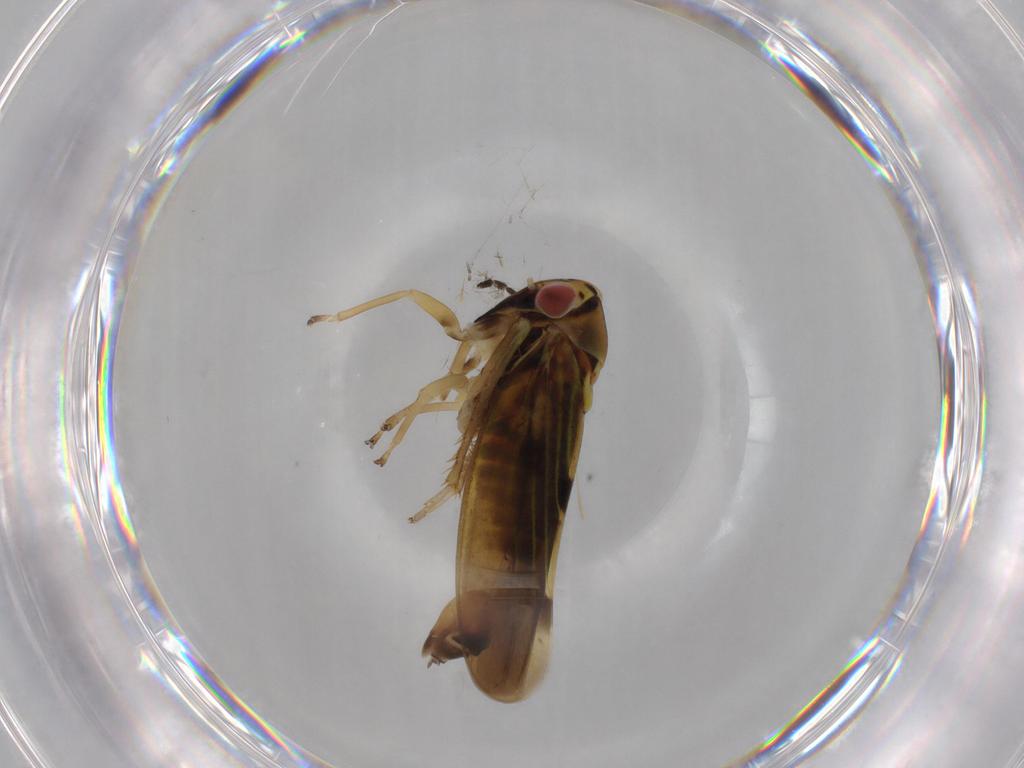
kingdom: Animalia
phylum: Arthropoda
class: Insecta
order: Hemiptera
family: Cicadellidae
